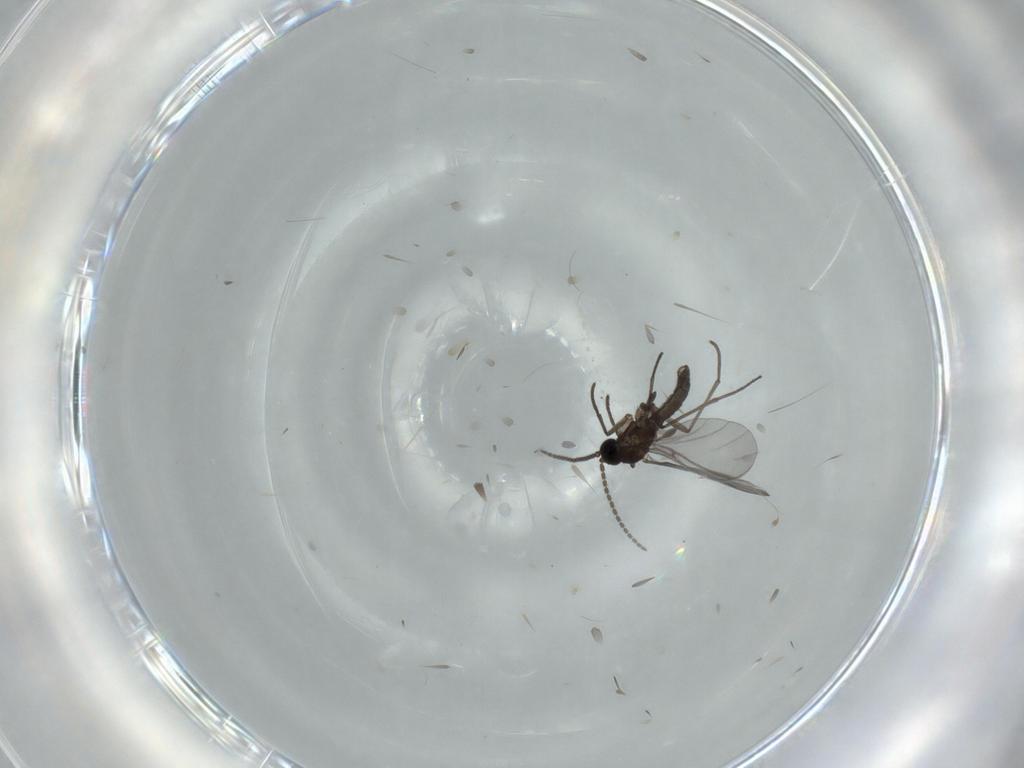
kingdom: Animalia
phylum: Arthropoda
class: Insecta
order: Diptera
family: Sciaridae
